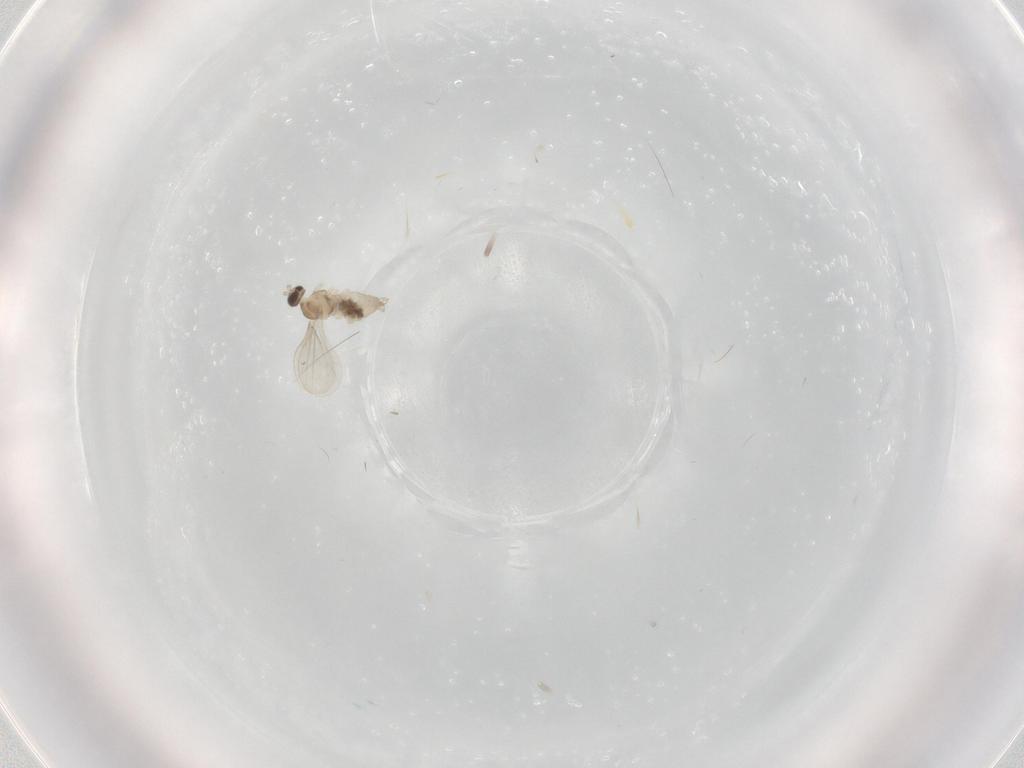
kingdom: Animalia
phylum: Arthropoda
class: Insecta
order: Diptera
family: Cecidomyiidae
